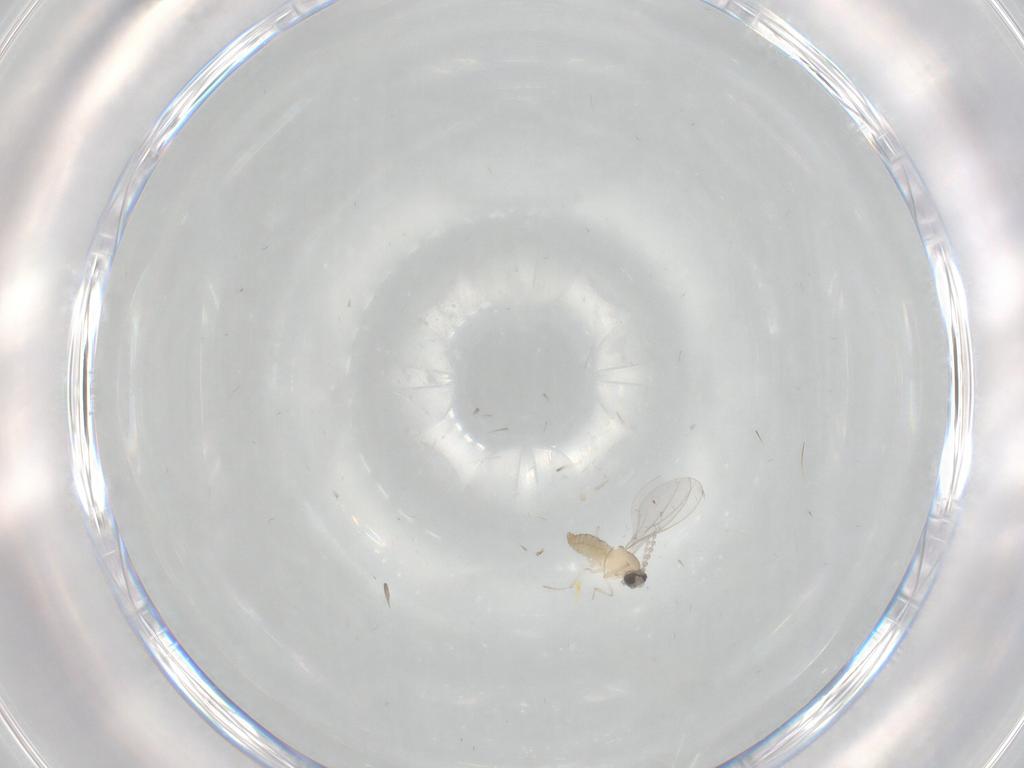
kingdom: Animalia
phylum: Arthropoda
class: Insecta
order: Diptera
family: Cecidomyiidae
